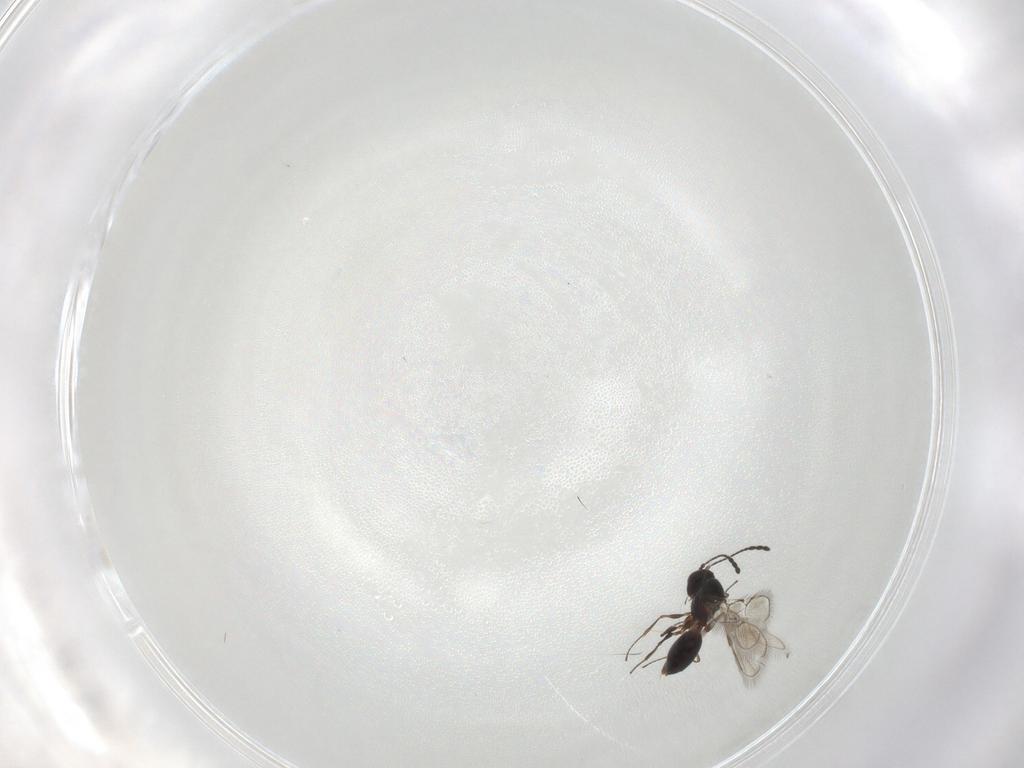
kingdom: Animalia
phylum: Arthropoda
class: Insecta
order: Hymenoptera
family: Figitidae
